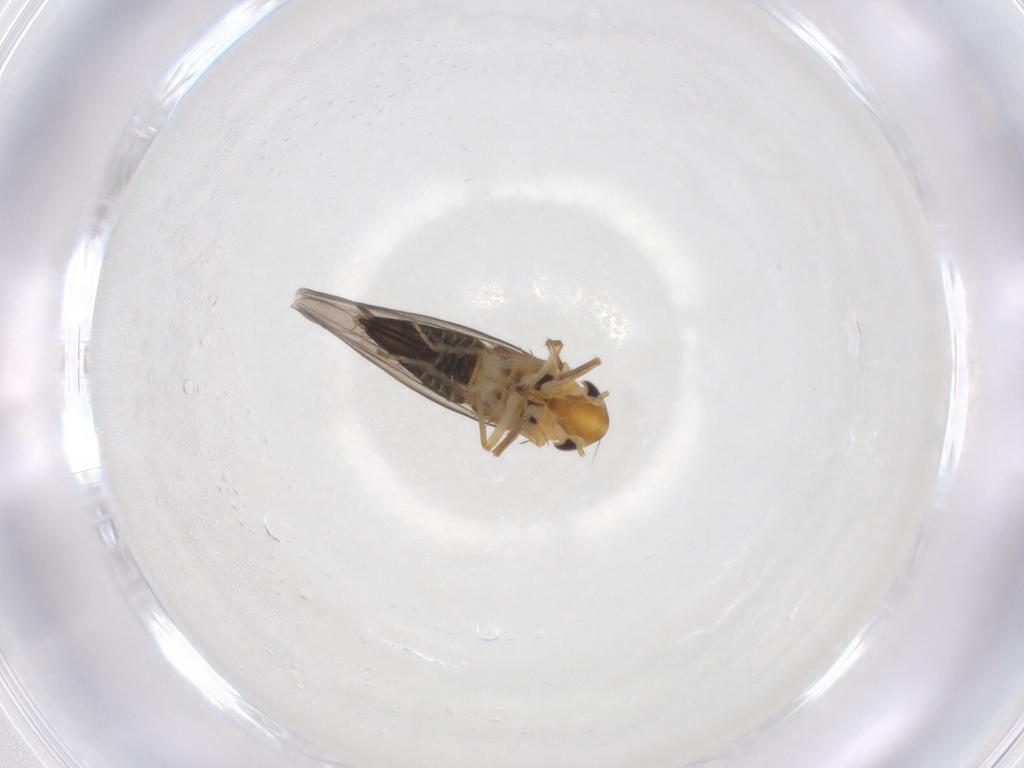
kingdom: Animalia
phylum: Arthropoda
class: Insecta
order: Hemiptera
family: Cicadellidae
